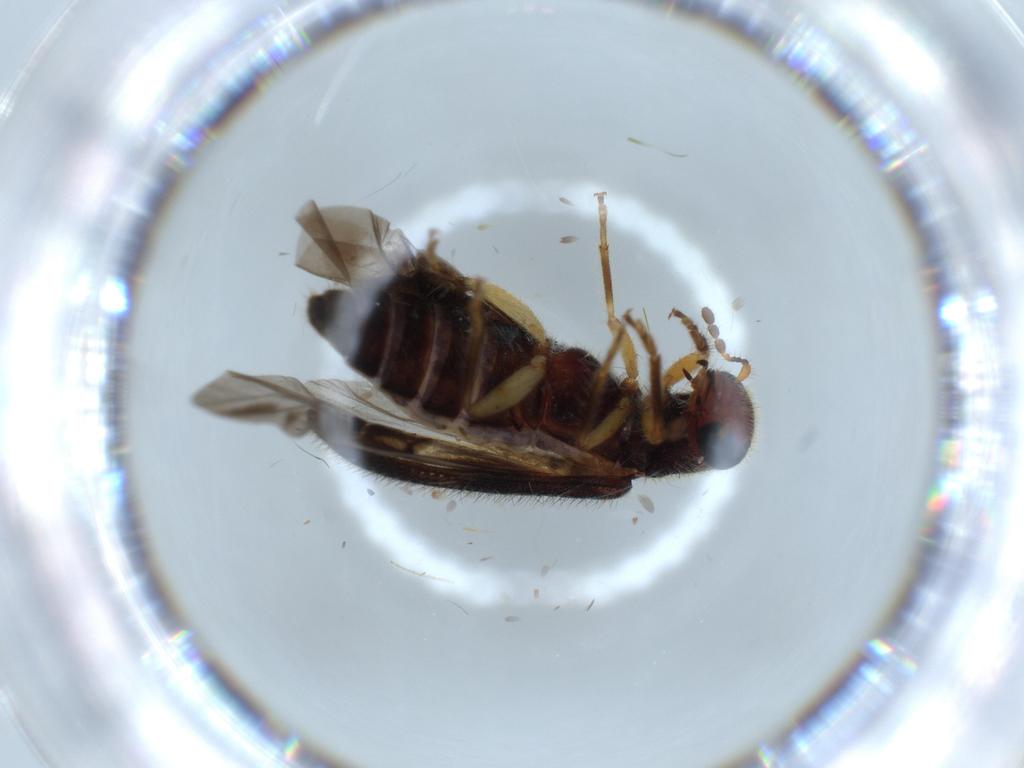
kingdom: Animalia
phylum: Arthropoda
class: Insecta
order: Coleoptera
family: Cleridae
